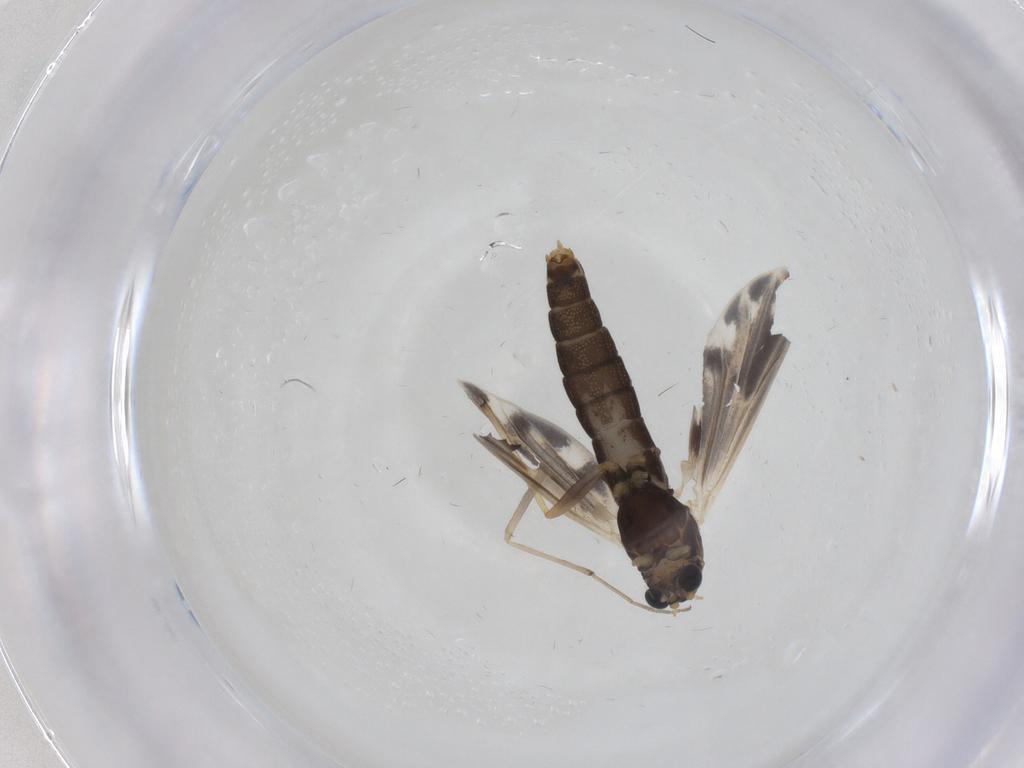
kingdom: Animalia
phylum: Arthropoda
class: Insecta
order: Diptera
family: Chironomidae
